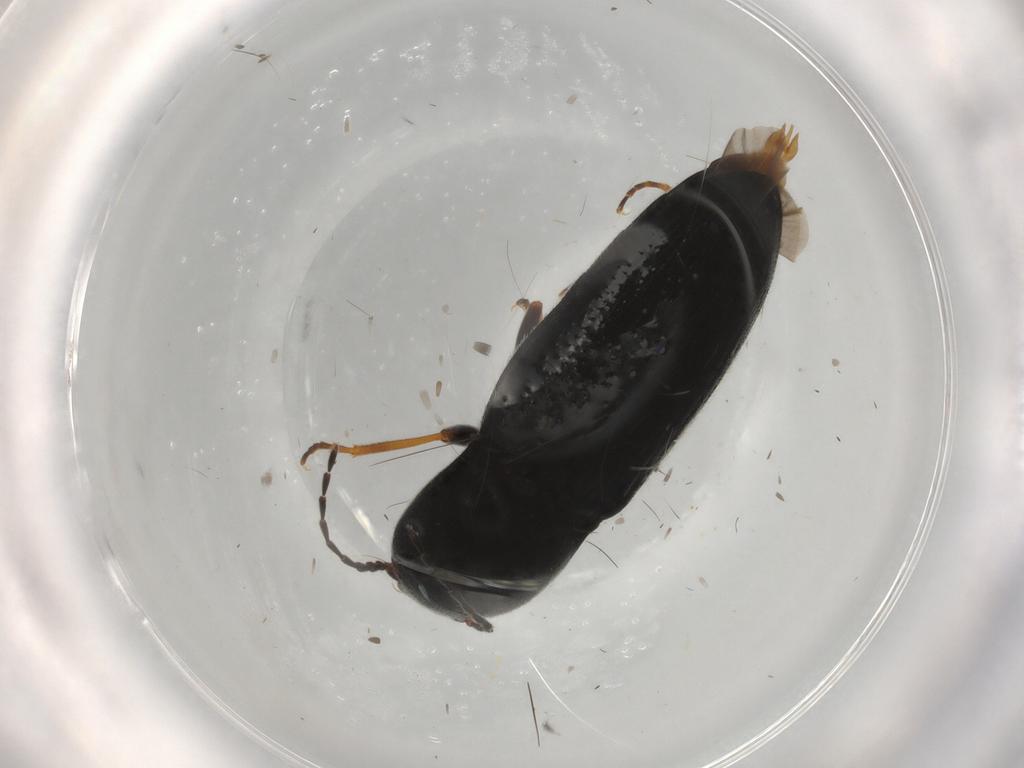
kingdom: Animalia
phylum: Arthropoda
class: Insecta
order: Coleoptera
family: Elateridae
